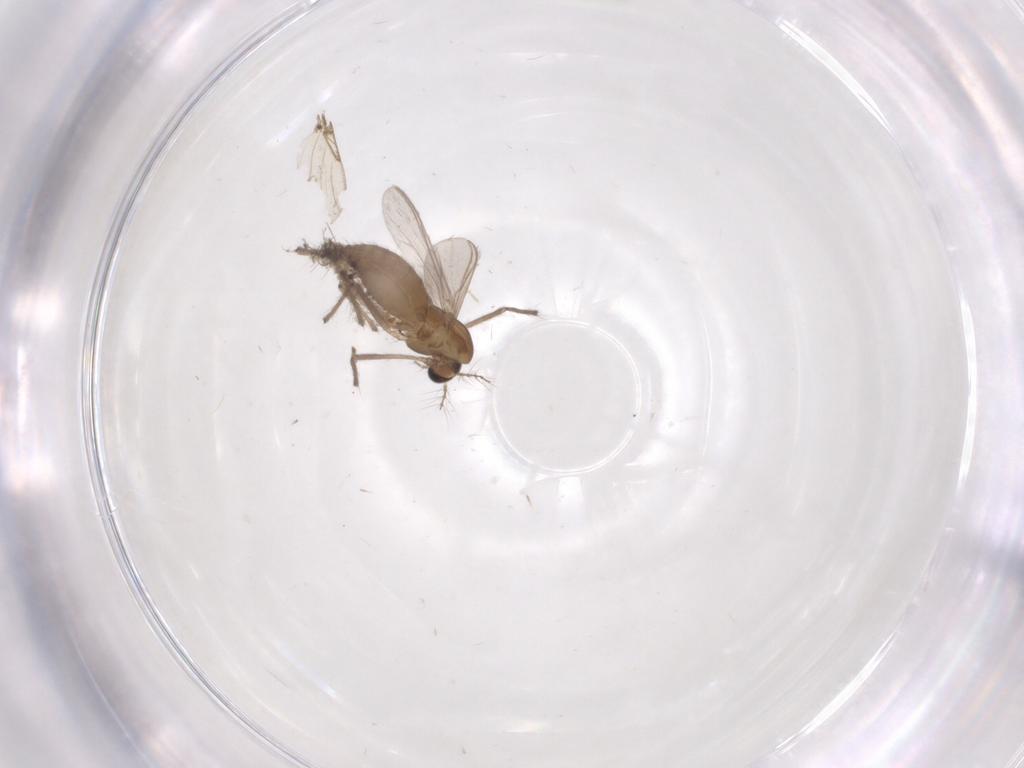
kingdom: Animalia
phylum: Arthropoda
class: Insecta
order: Diptera
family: Chironomidae
